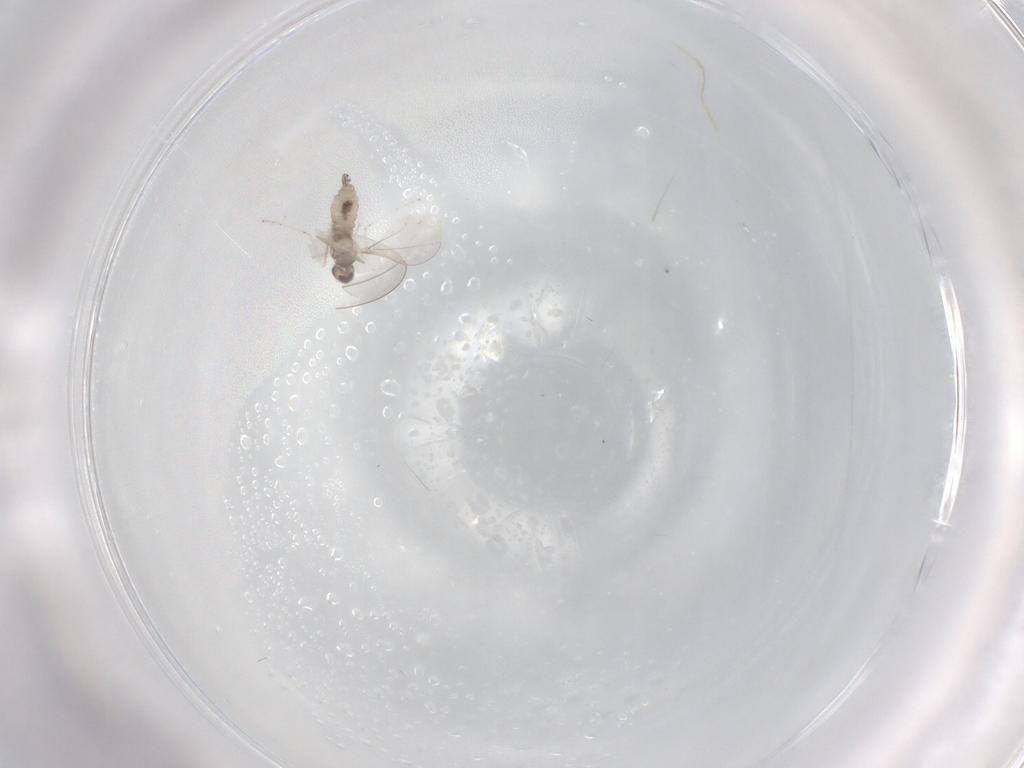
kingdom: Animalia
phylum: Arthropoda
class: Insecta
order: Diptera
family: Cecidomyiidae
